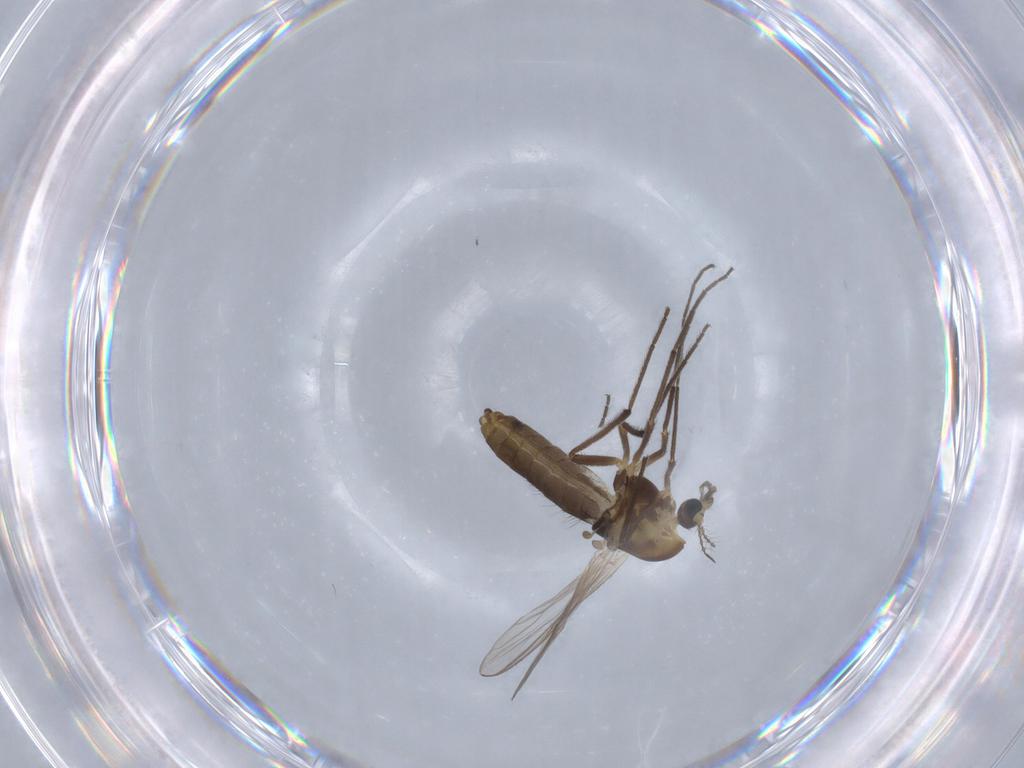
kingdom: Animalia
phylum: Arthropoda
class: Insecta
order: Diptera
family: Chironomidae
